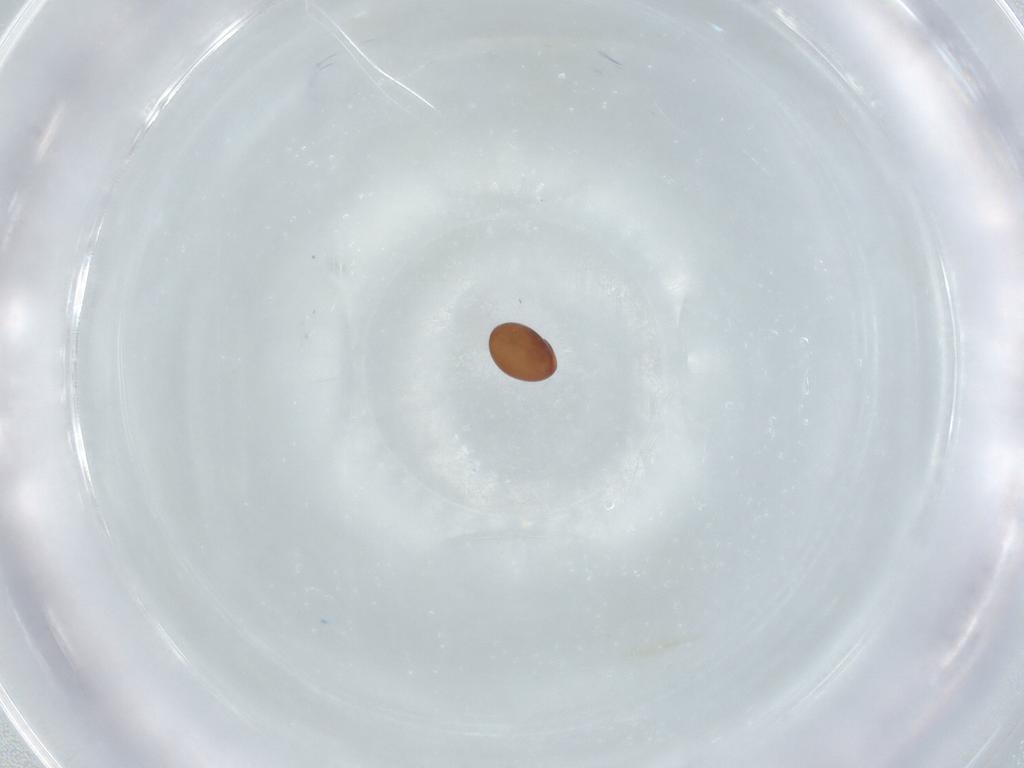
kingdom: Animalia
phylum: Arthropoda
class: Arachnida
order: Sarcoptiformes
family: Phthiracaridae
